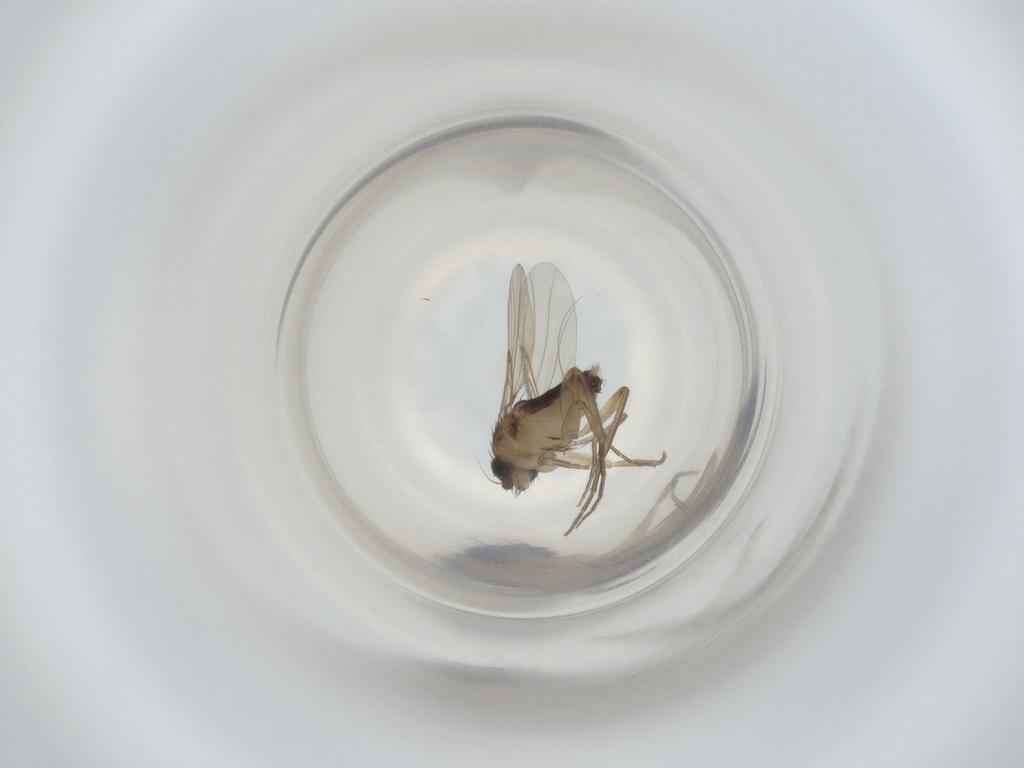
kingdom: Animalia
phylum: Arthropoda
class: Insecta
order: Diptera
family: Phoridae
